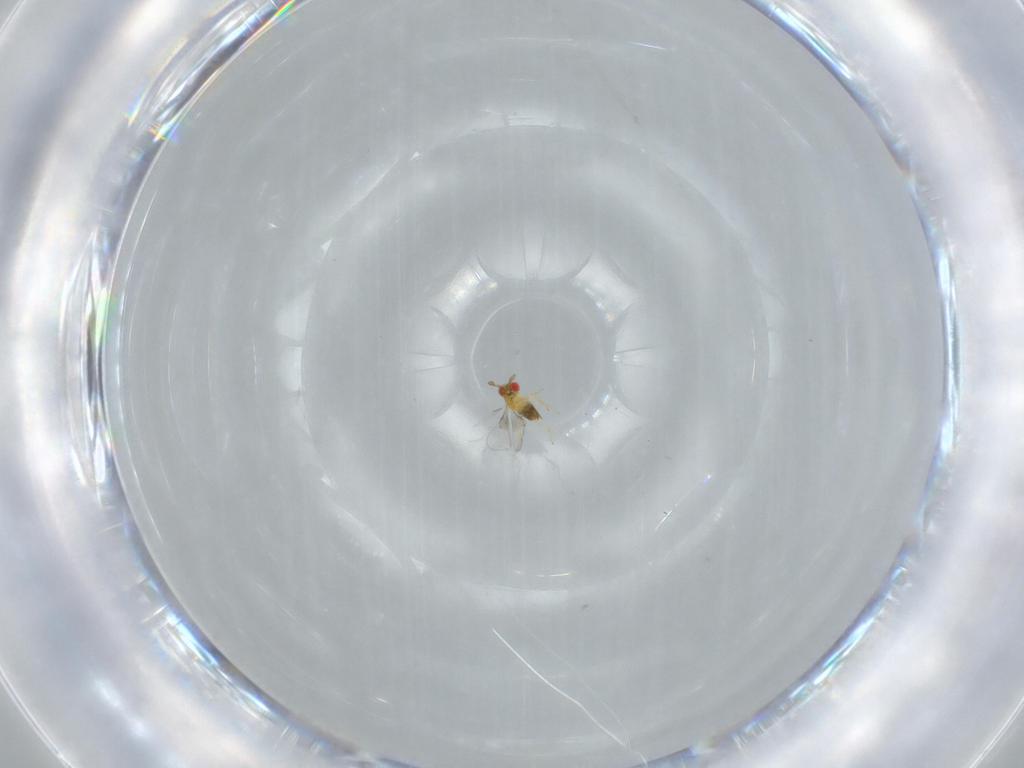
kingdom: Animalia
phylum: Arthropoda
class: Insecta
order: Hymenoptera
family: Trichogrammatidae
